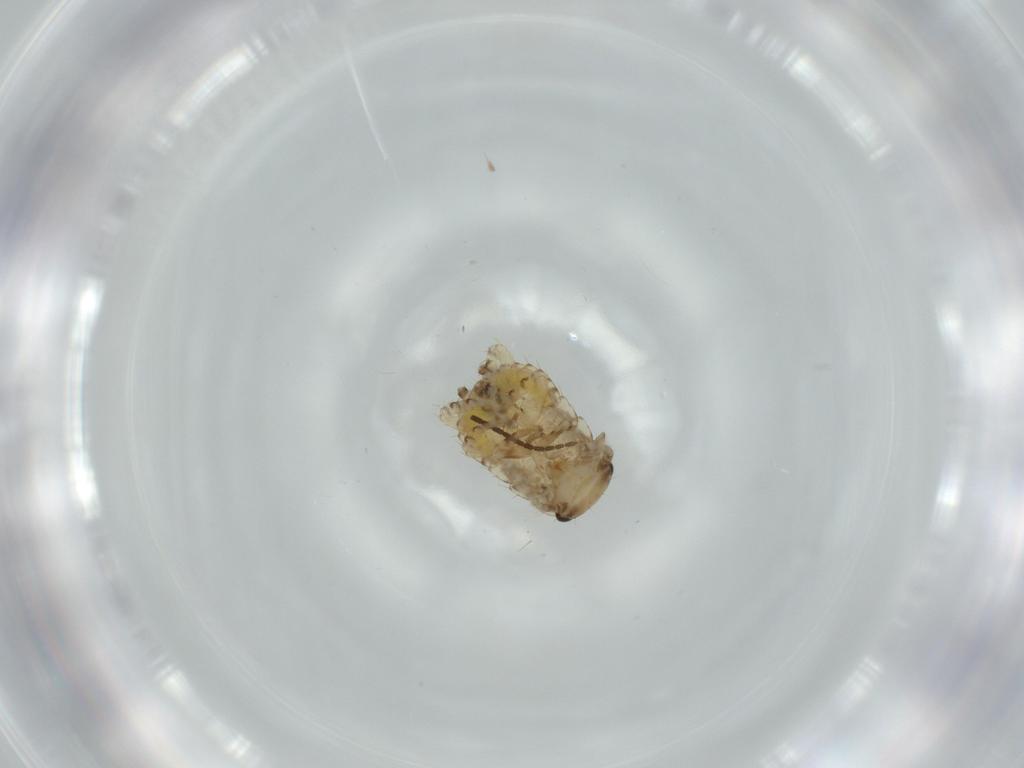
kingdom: Animalia
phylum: Arthropoda
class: Insecta
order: Blattodea
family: Ectobiidae
